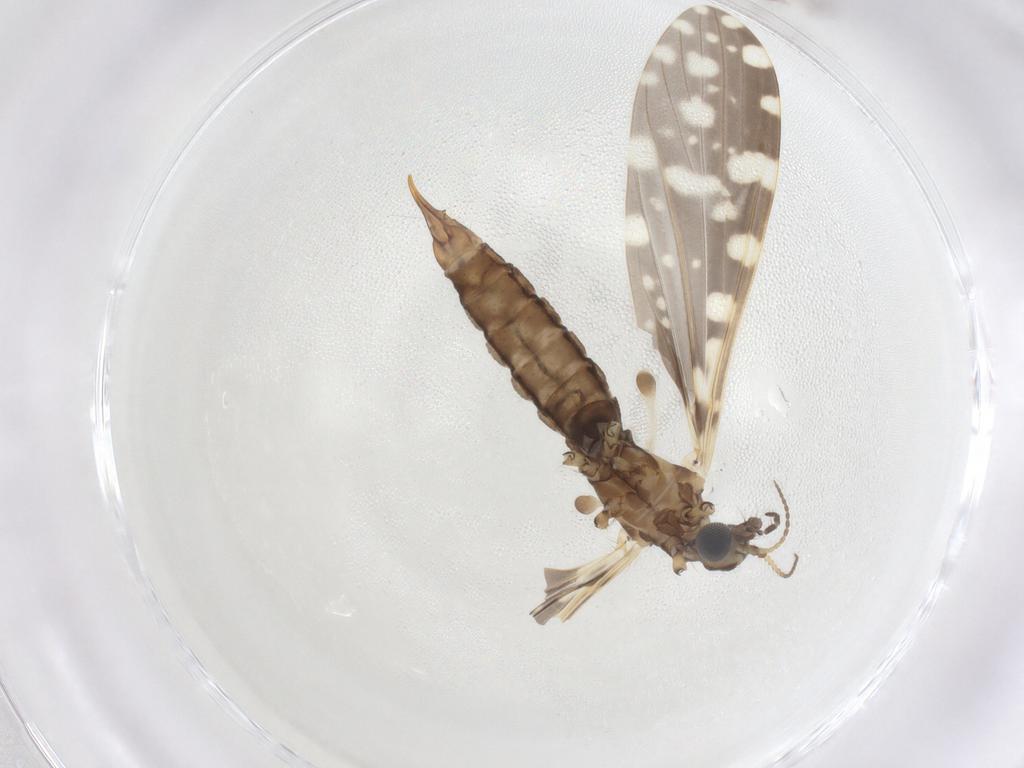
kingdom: Animalia
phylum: Arthropoda
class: Insecta
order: Diptera
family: Limoniidae
